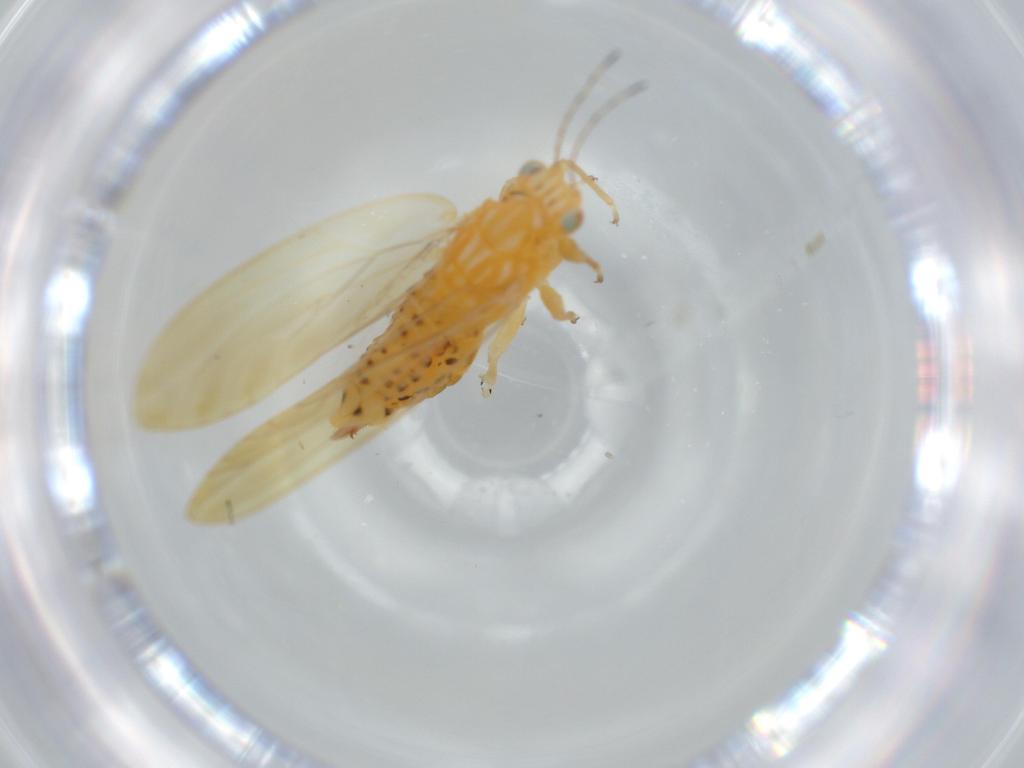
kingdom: Animalia
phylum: Arthropoda
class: Insecta
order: Hemiptera
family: Triozidae
